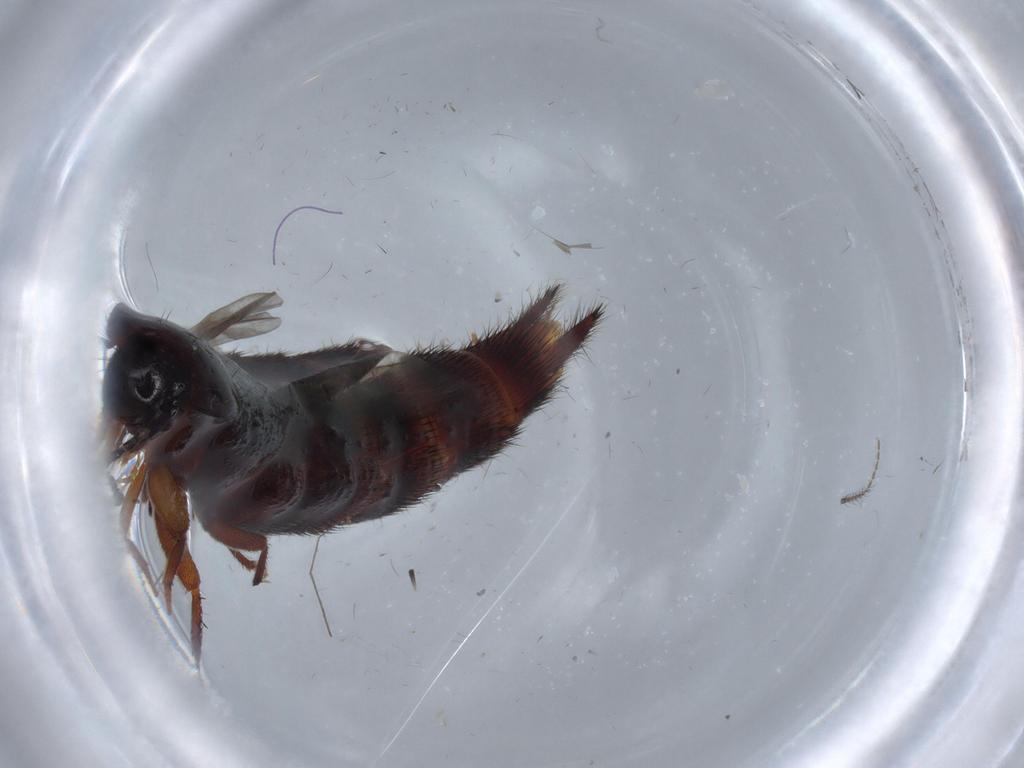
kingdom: Animalia
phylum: Arthropoda
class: Insecta
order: Coleoptera
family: Staphylinidae
